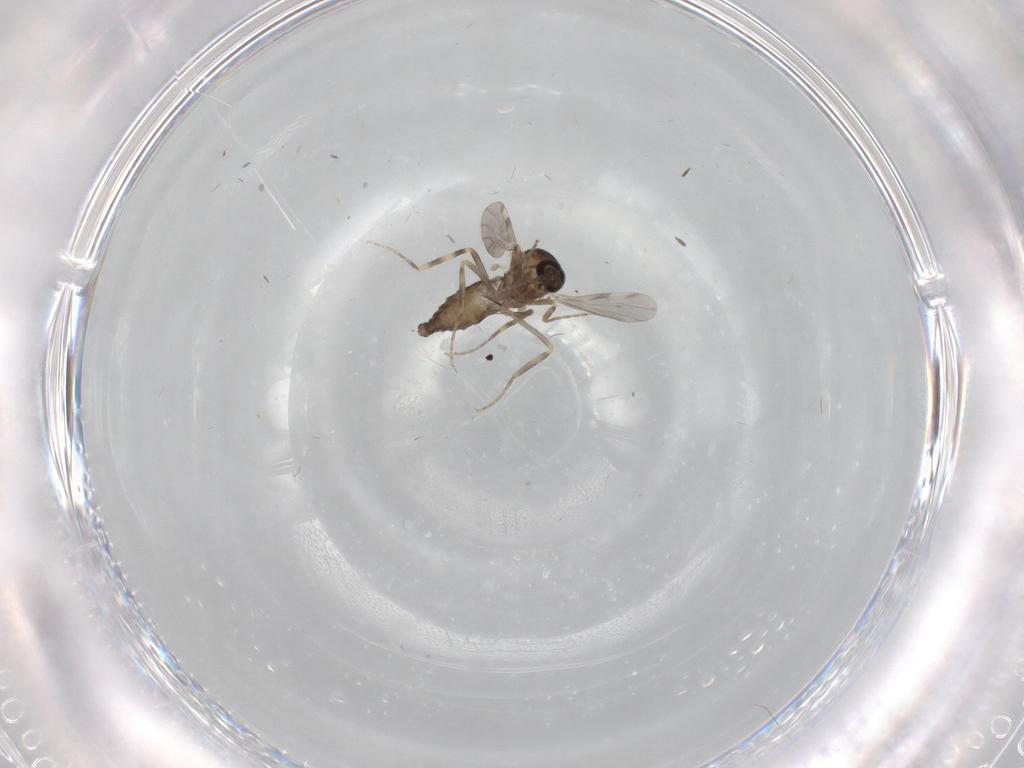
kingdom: Animalia
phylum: Arthropoda
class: Insecta
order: Diptera
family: Ceratopogonidae
